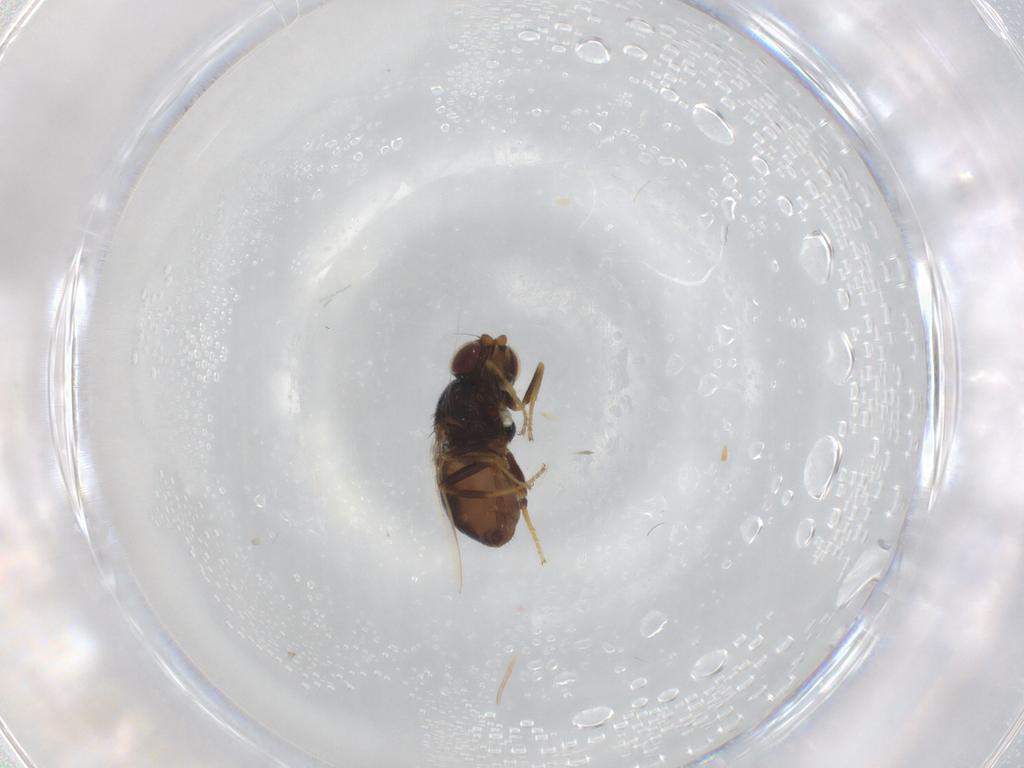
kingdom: Animalia
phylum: Arthropoda
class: Insecta
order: Diptera
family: Chloropidae
